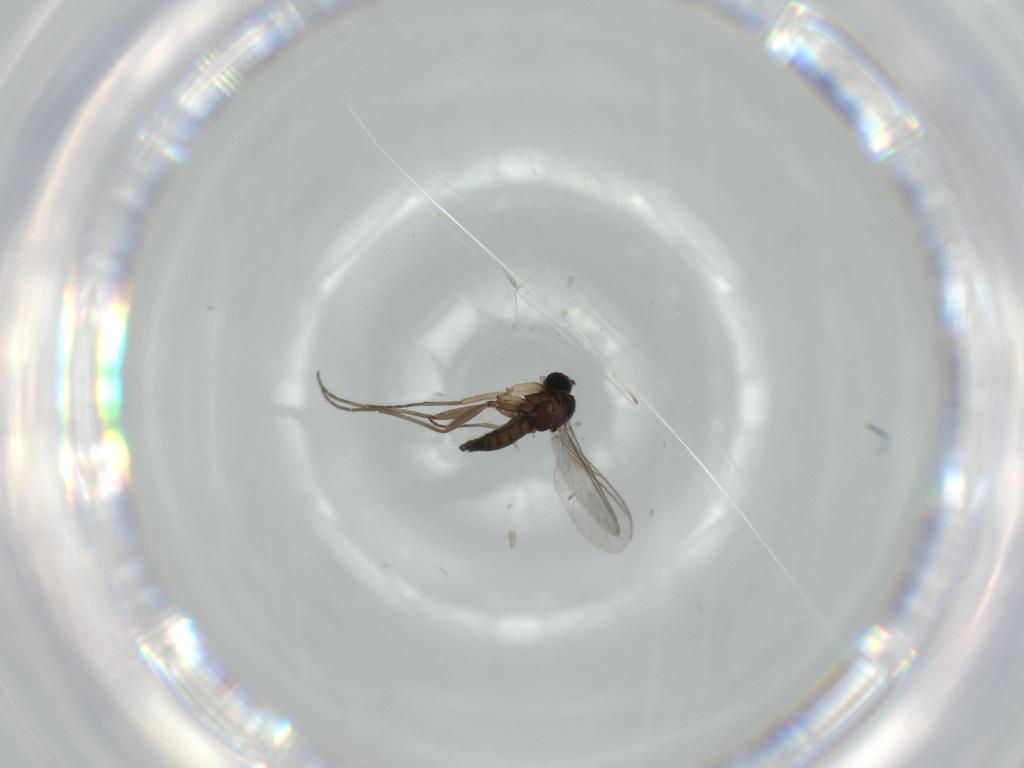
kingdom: Animalia
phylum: Arthropoda
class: Insecta
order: Diptera
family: Sciaridae
